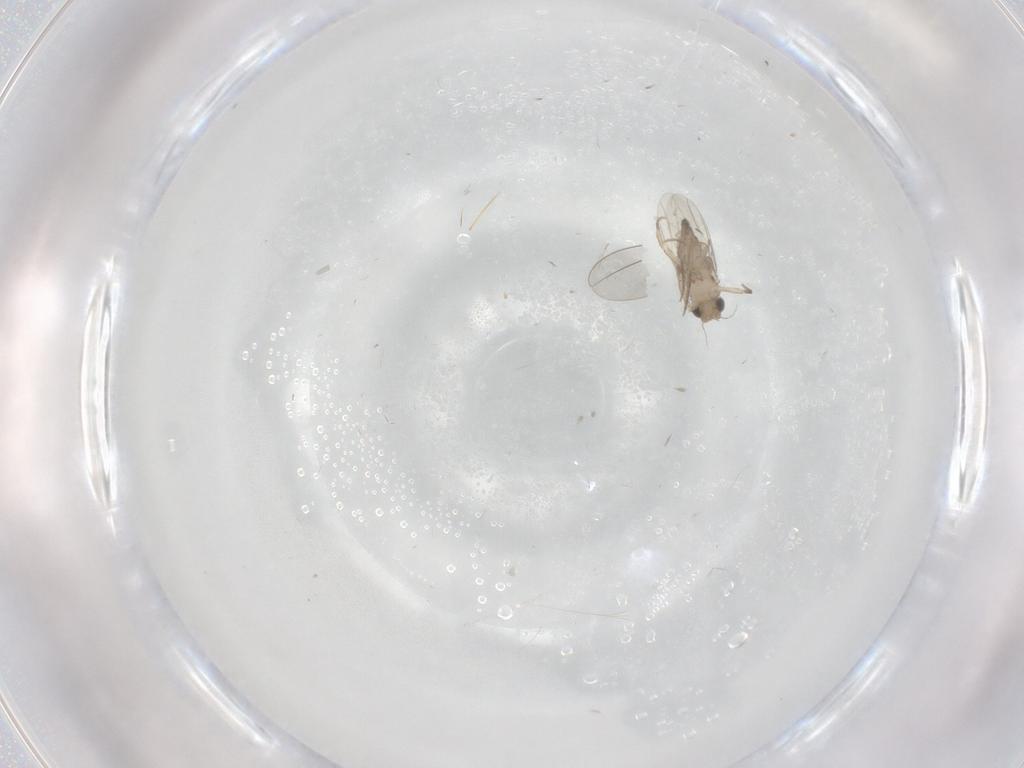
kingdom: Animalia
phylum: Arthropoda
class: Insecta
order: Diptera
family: Phoridae
